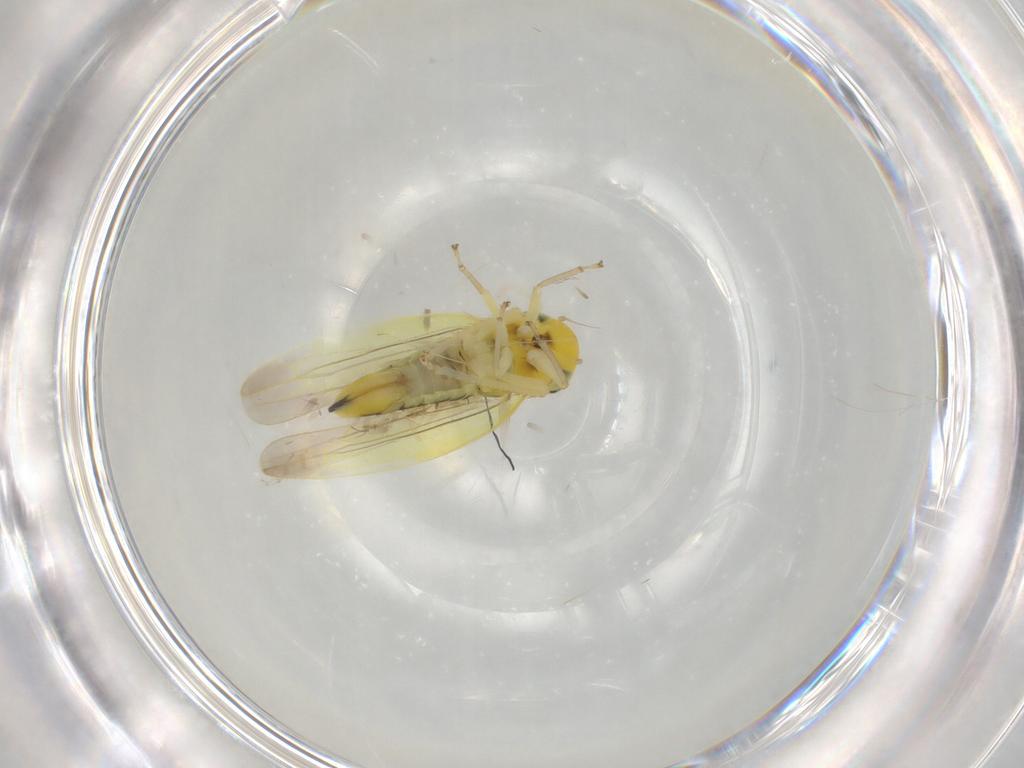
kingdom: Animalia
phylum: Arthropoda
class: Insecta
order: Hemiptera
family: Cicadellidae
